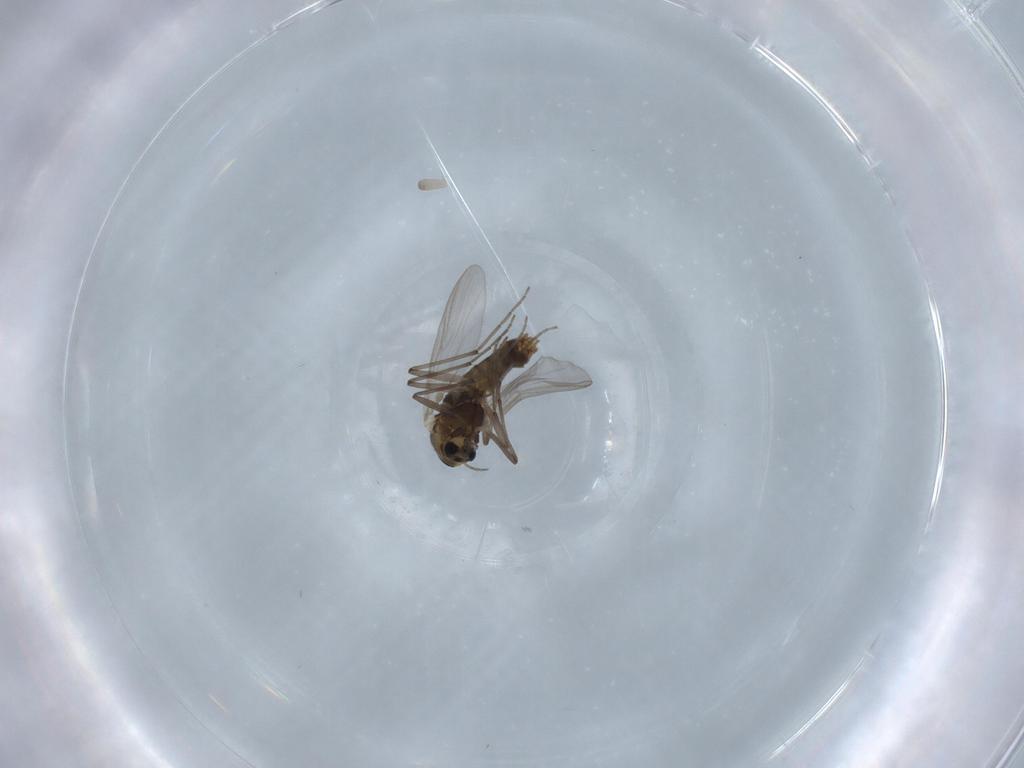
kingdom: Animalia
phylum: Arthropoda
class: Insecta
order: Diptera
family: Chironomidae
